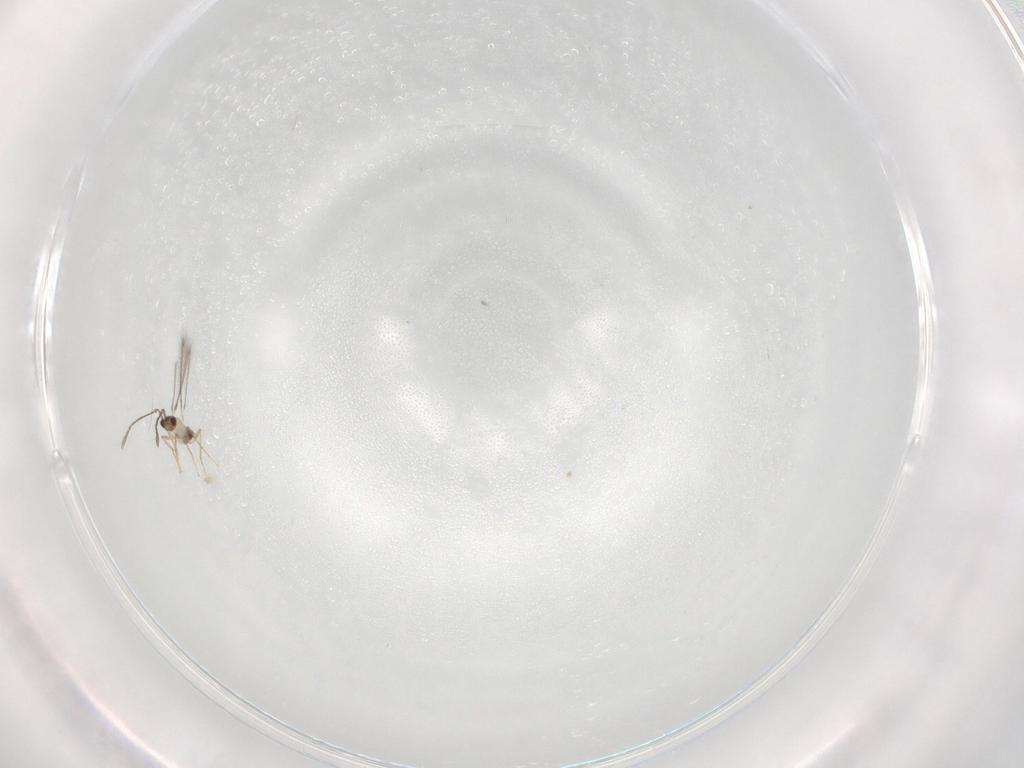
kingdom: Animalia
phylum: Arthropoda
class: Insecta
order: Hymenoptera
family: Mymaridae
